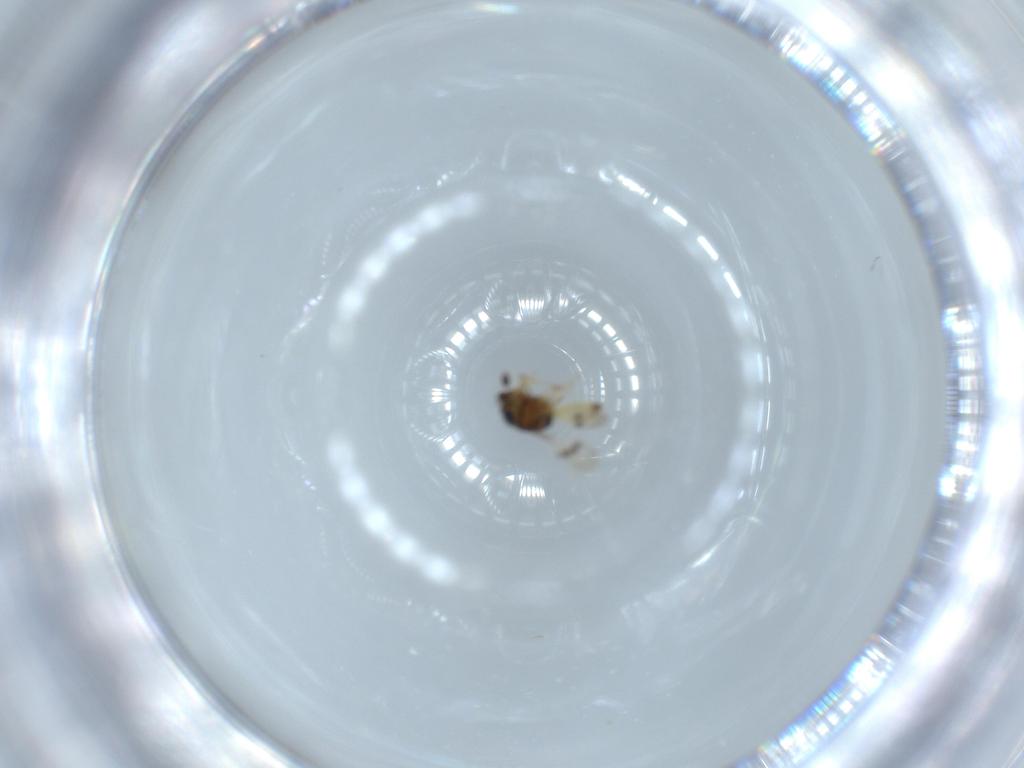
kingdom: Animalia
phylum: Arthropoda
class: Arachnida
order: Araneae
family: Pholcidae
